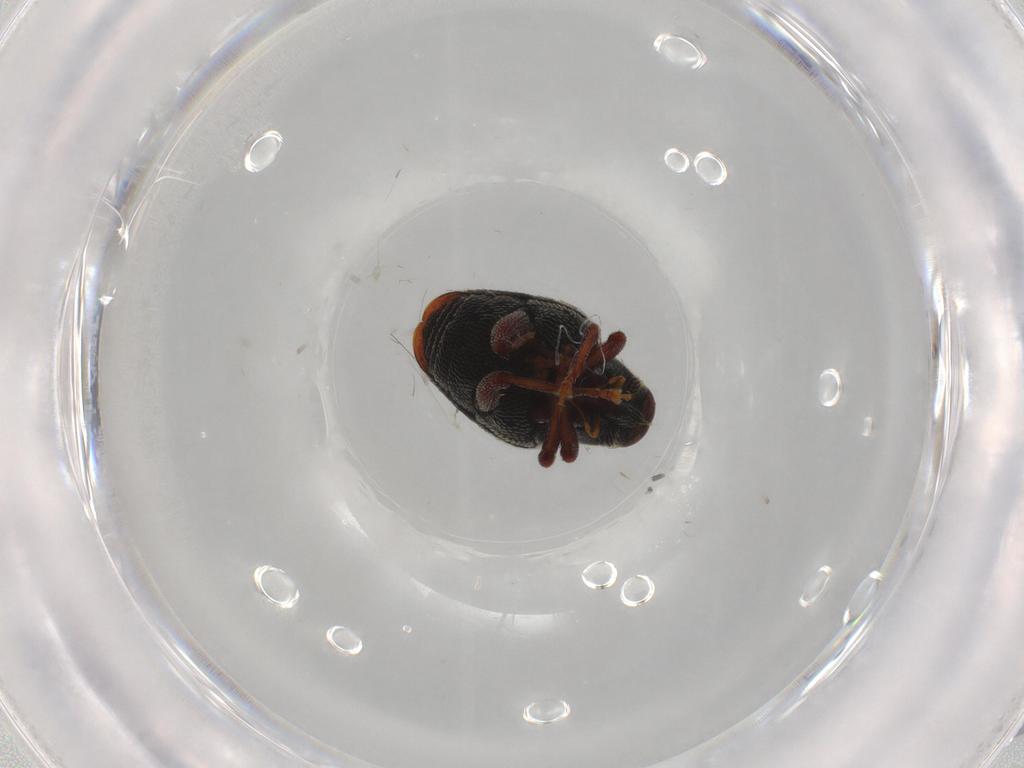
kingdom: Animalia
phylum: Arthropoda
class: Insecta
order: Coleoptera
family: Curculionidae
